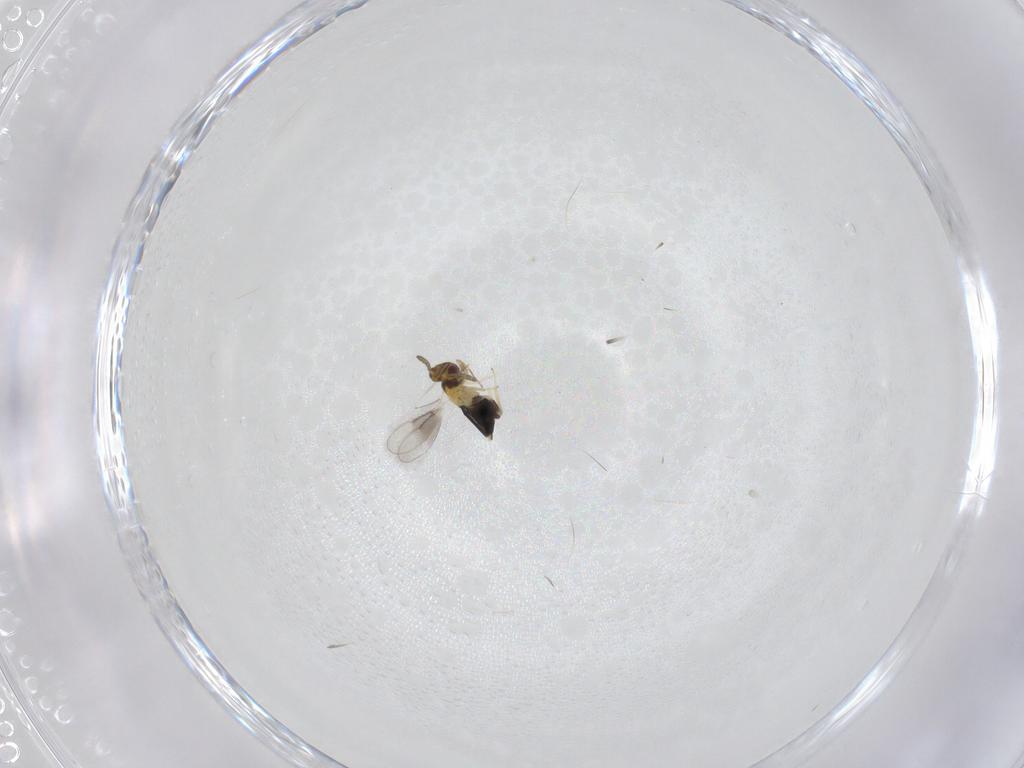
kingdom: Animalia
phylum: Arthropoda
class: Insecta
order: Hymenoptera
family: Aphelinidae
